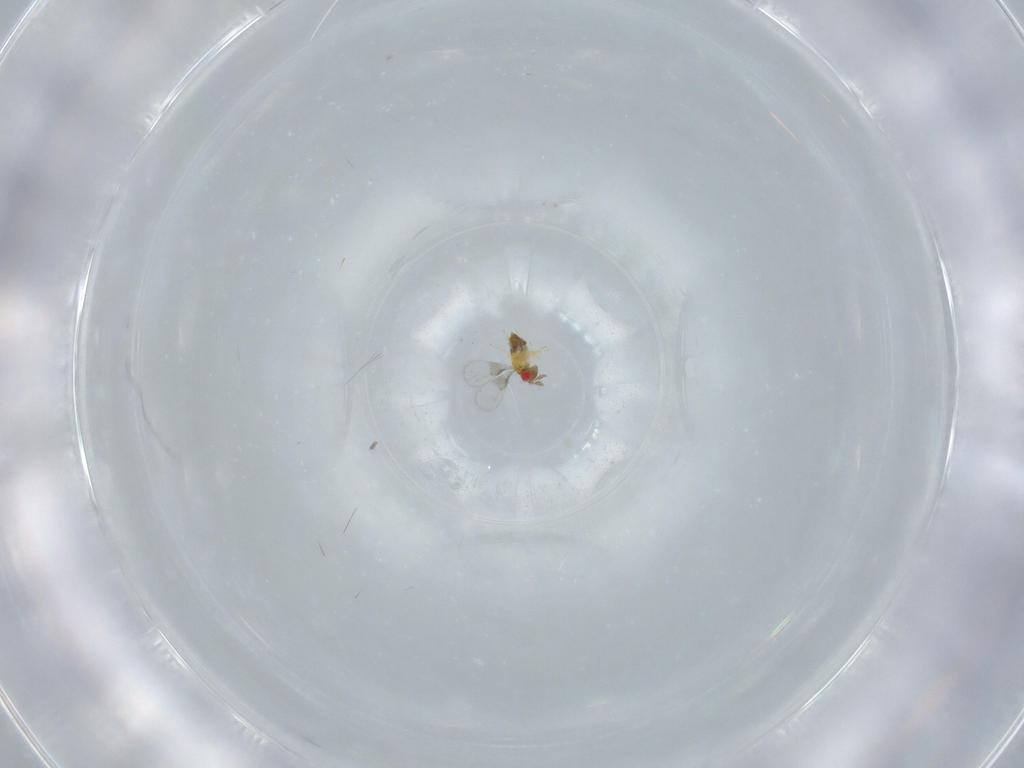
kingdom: Animalia
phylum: Arthropoda
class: Insecta
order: Hymenoptera
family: Trichogrammatidae
